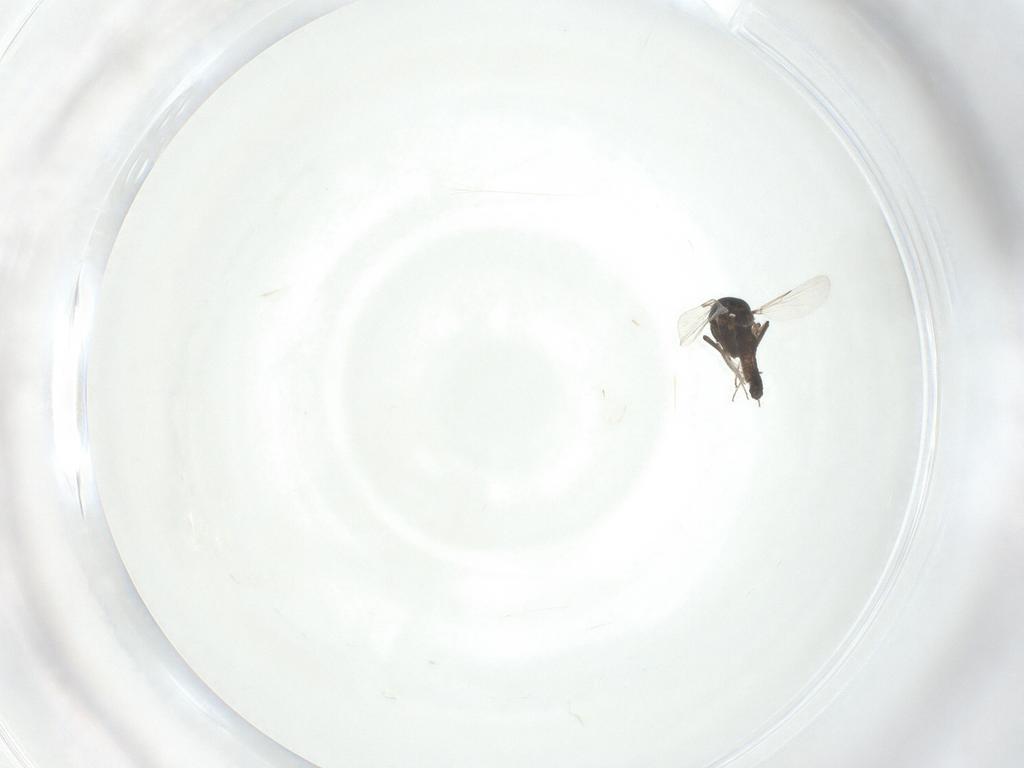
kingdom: Animalia
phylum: Arthropoda
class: Insecta
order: Diptera
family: Ceratopogonidae
